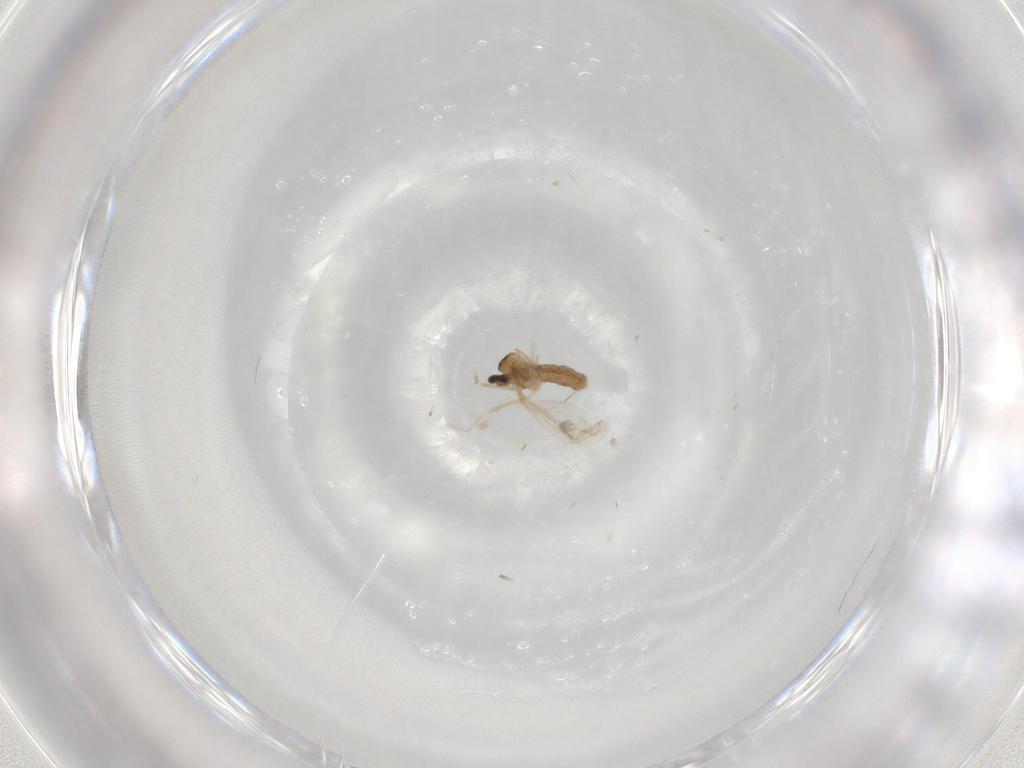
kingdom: Animalia
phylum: Arthropoda
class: Insecta
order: Diptera
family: Cecidomyiidae
